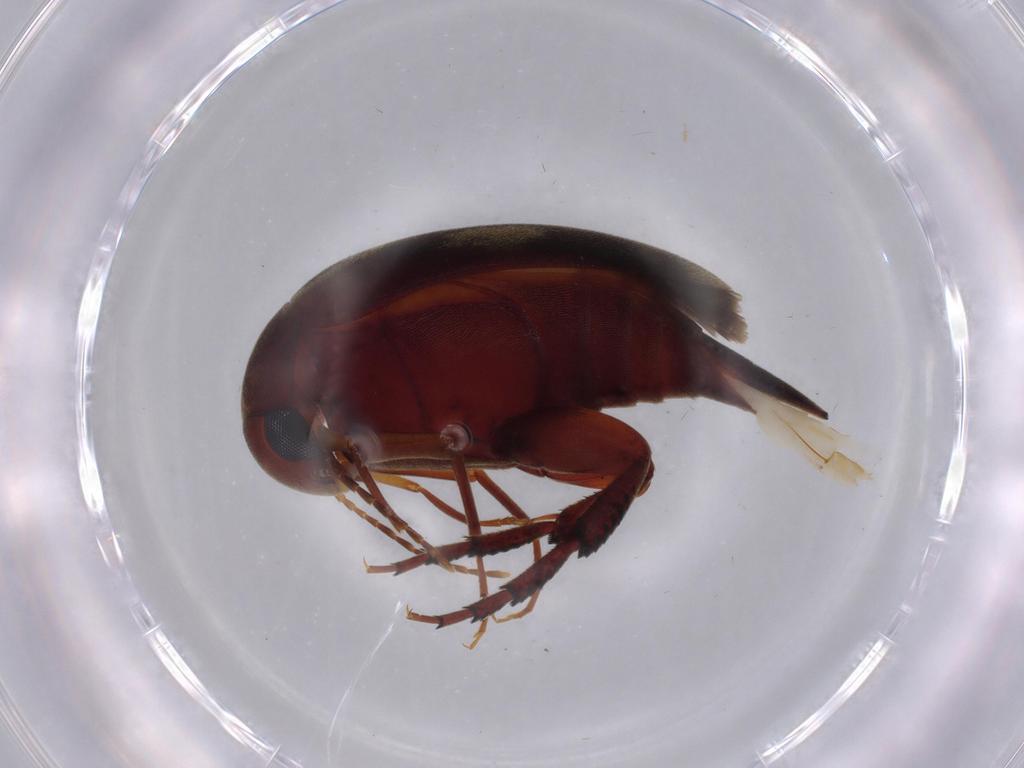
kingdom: Animalia
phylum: Arthropoda
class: Insecta
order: Coleoptera
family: Mordellidae
